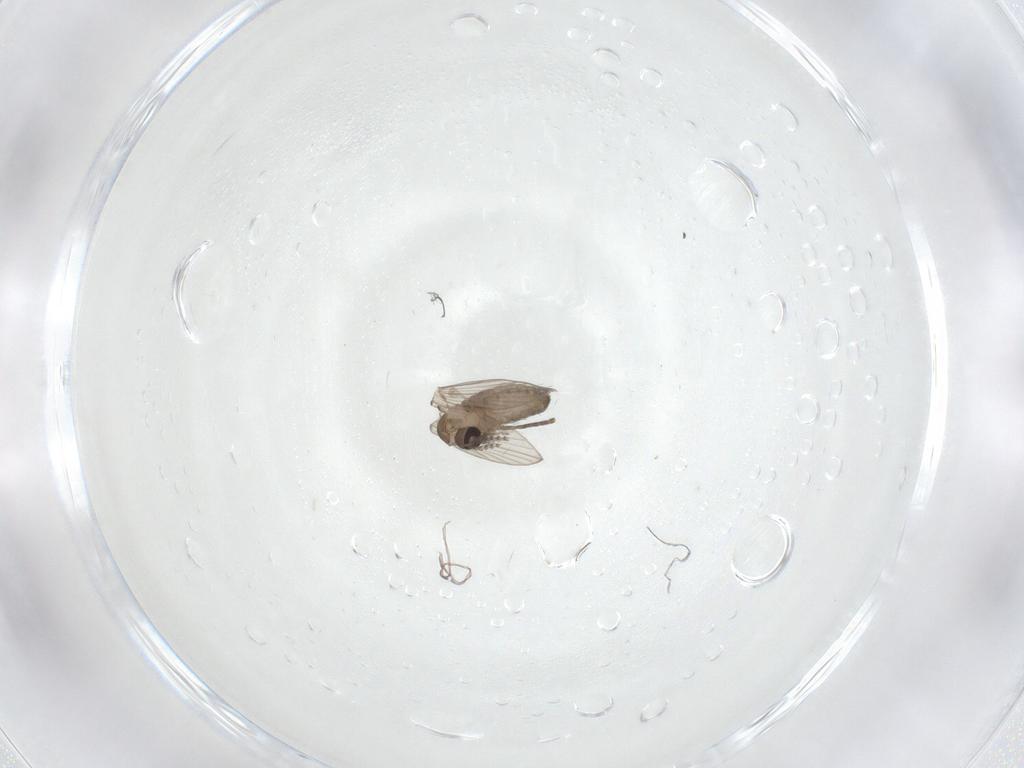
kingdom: Animalia
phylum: Arthropoda
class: Insecta
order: Diptera
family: Psychodidae
